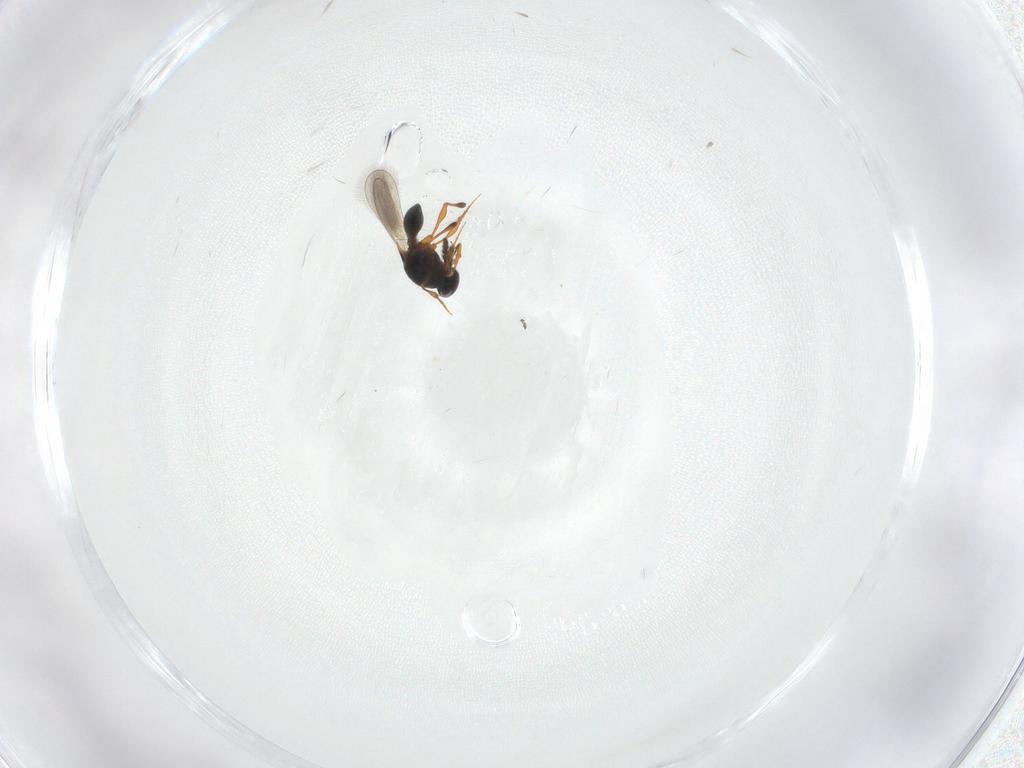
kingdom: Animalia
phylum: Arthropoda
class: Insecta
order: Hymenoptera
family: Platygastridae
